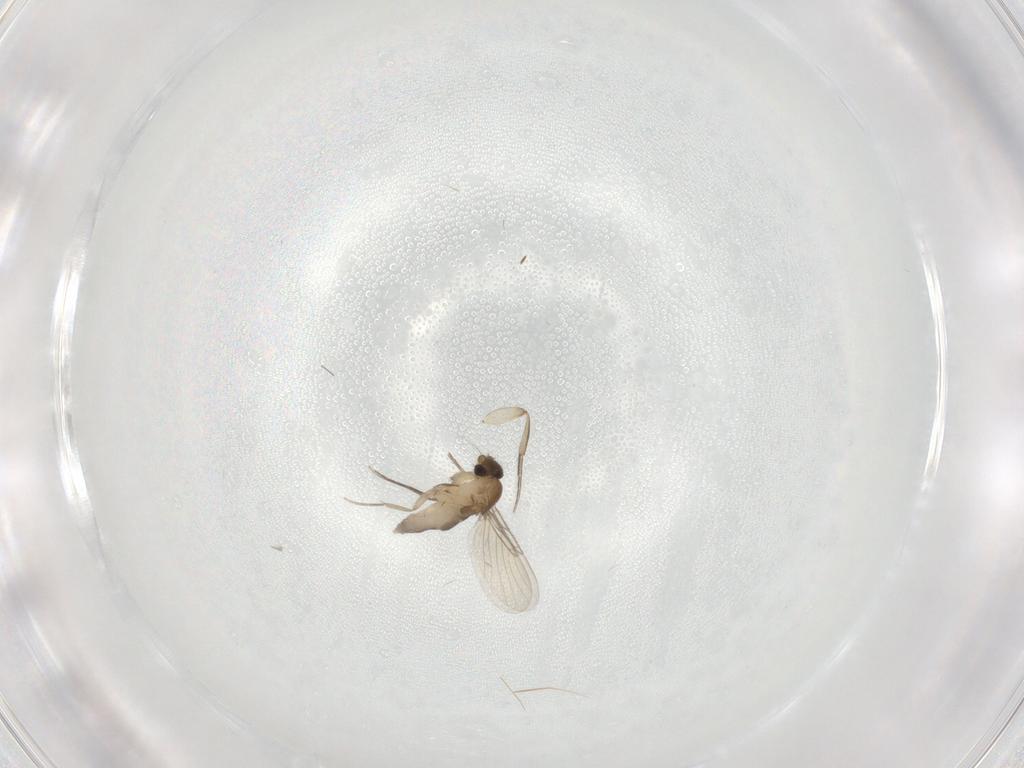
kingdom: Animalia
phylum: Arthropoda
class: Insecta
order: Diptera
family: Phoridae
